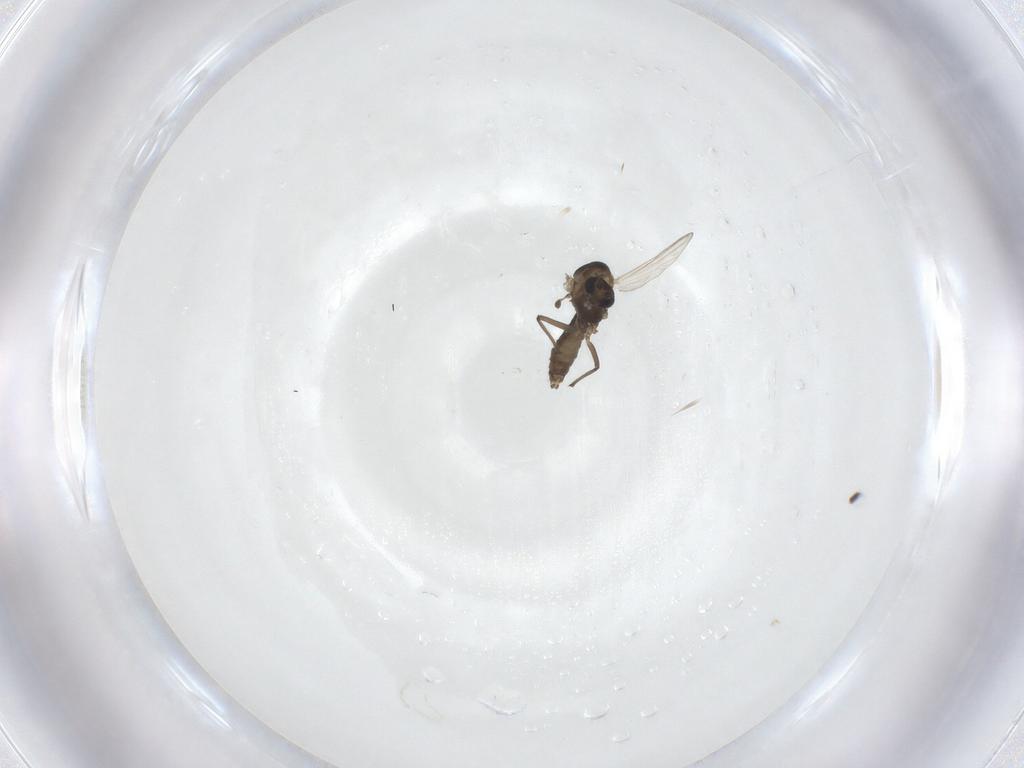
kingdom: Animalia
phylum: Arthropoda
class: Insecta
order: Diptera
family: Chironomidae
